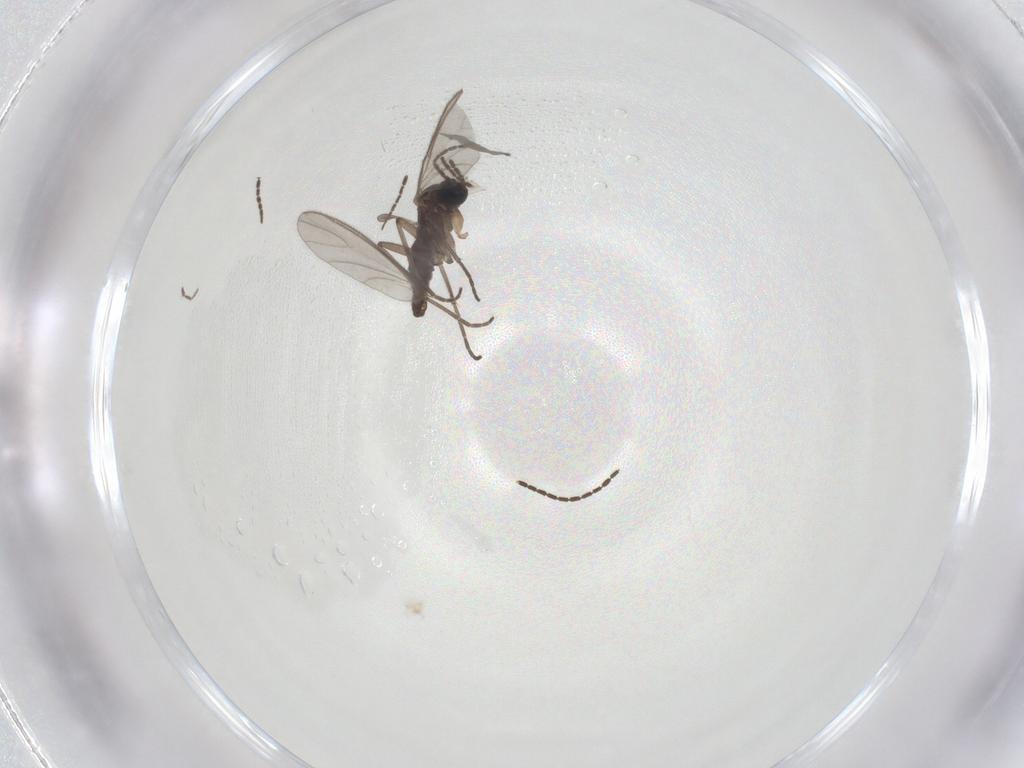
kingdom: Animalia
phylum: Arthropoda
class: Insecta
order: Diptera
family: Sciaridae
